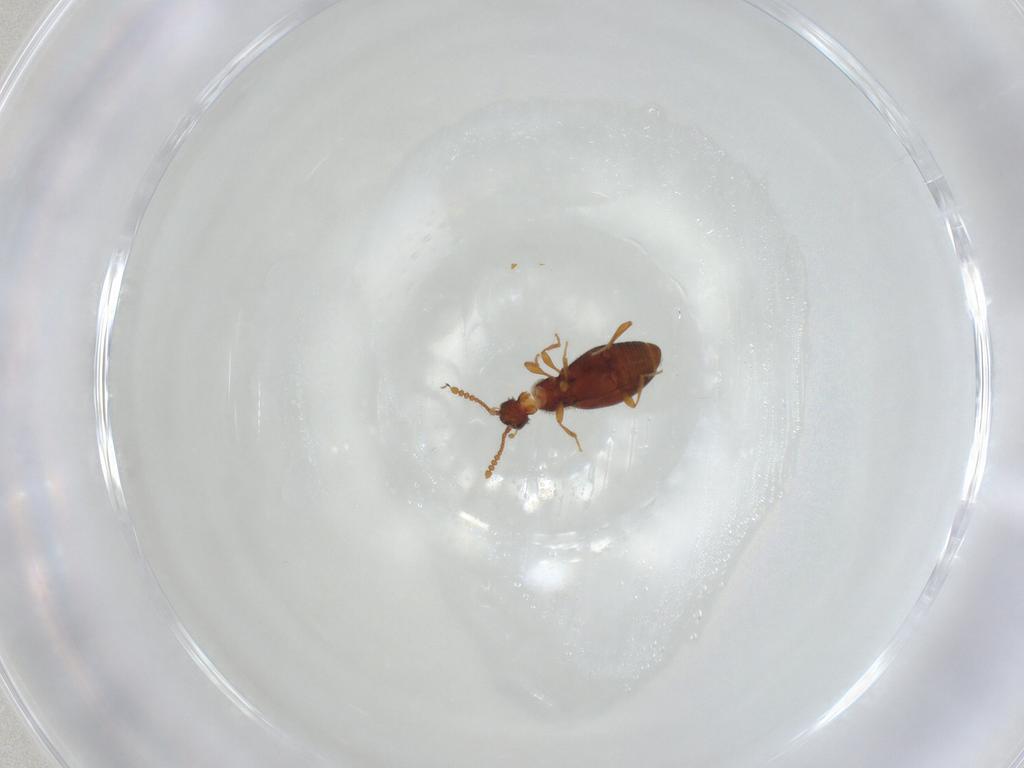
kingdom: Animalia
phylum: Arthropoda
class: Insecta
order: Coleoptera
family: Staphylinidae
